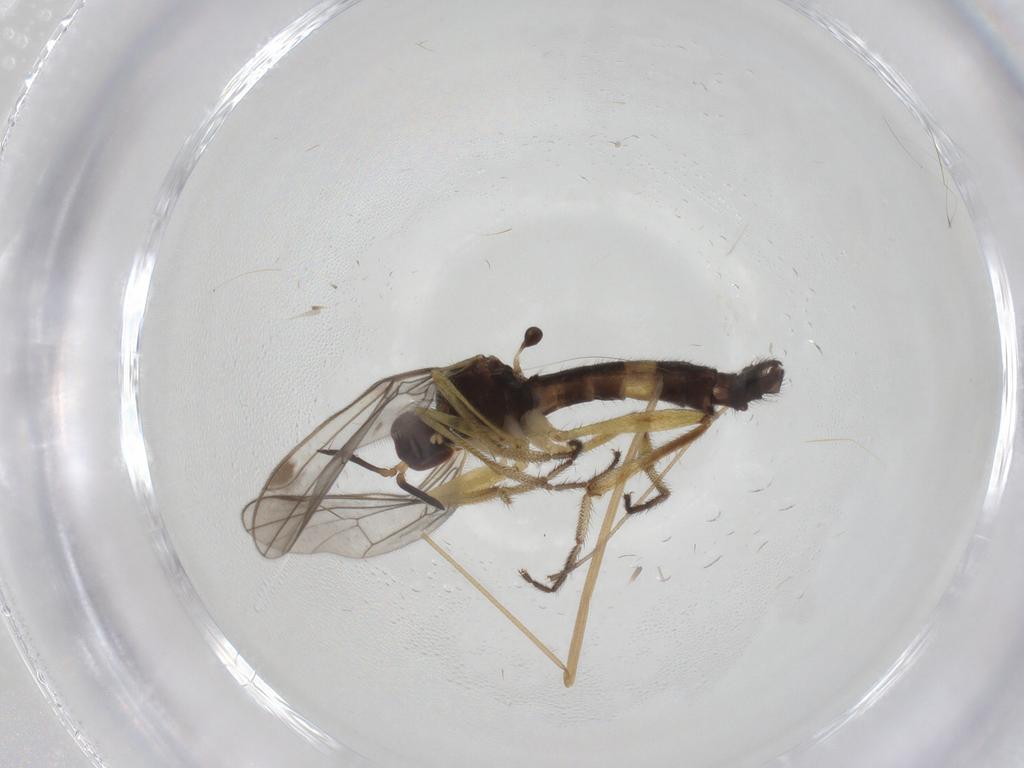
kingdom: Animalia
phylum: Arthropoda
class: Insecta
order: Diptera
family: Empididae
